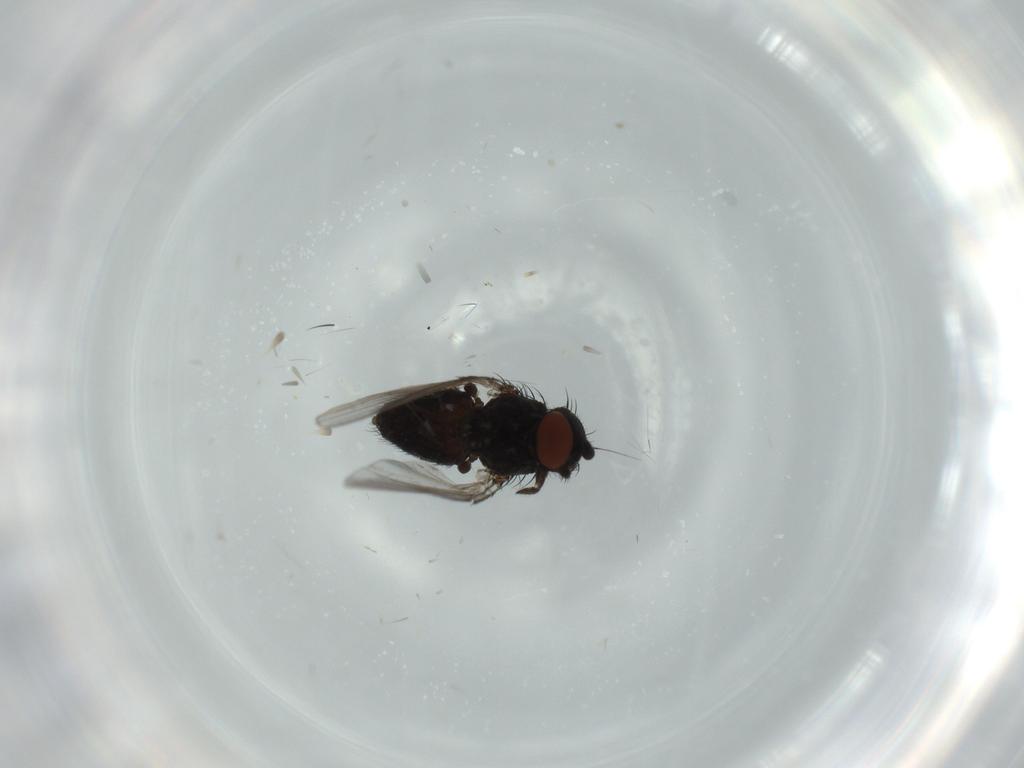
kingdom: Animalia
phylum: Arthropoda
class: Insecta
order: Diptera
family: Milichiidae
